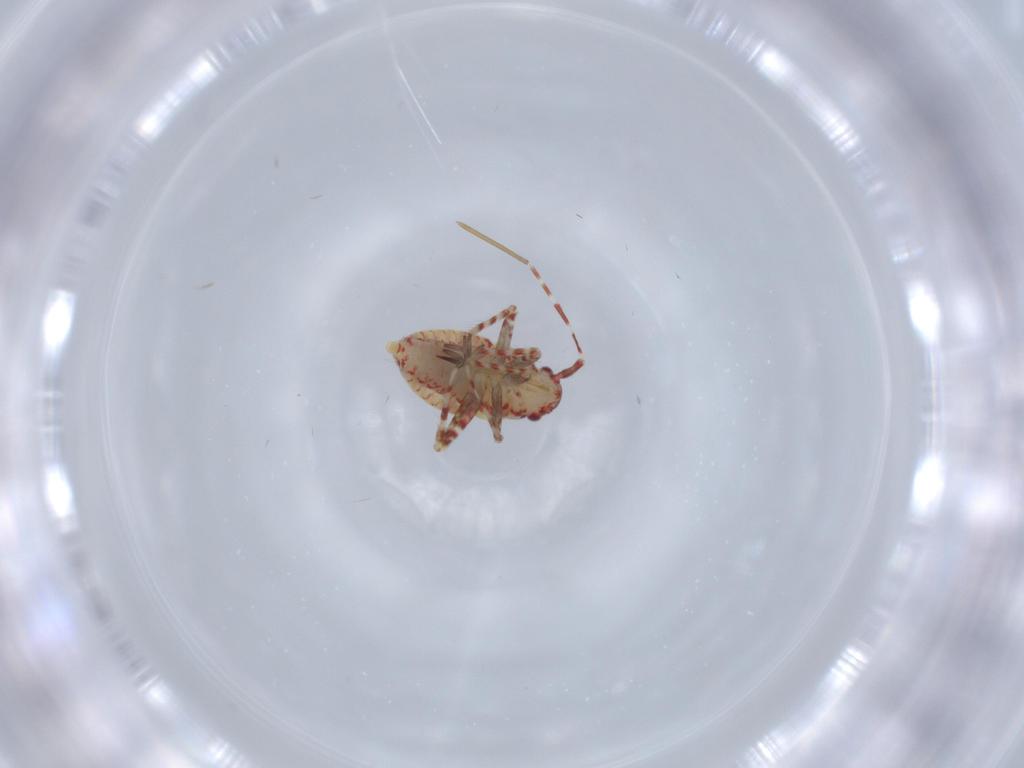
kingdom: Animalia
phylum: Arthropoda
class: Insecta
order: Hemiptera
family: Miridae
